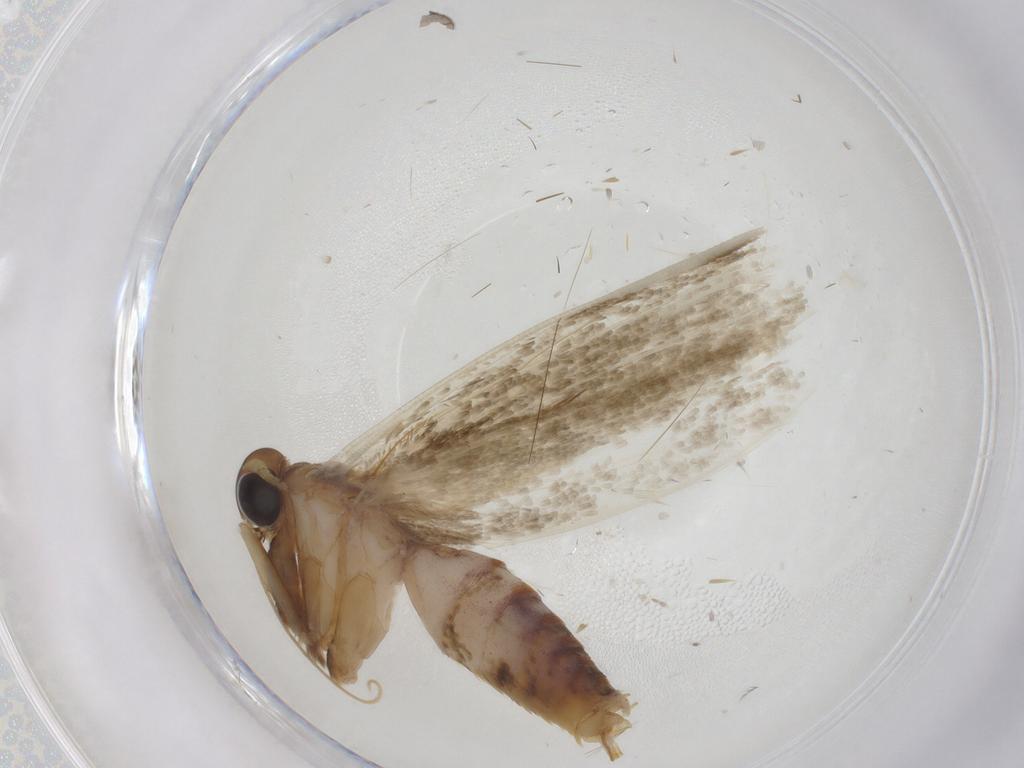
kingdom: Animalia
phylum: Arthropoda
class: Insecta
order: Lepidoptera
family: Blastobasidae
